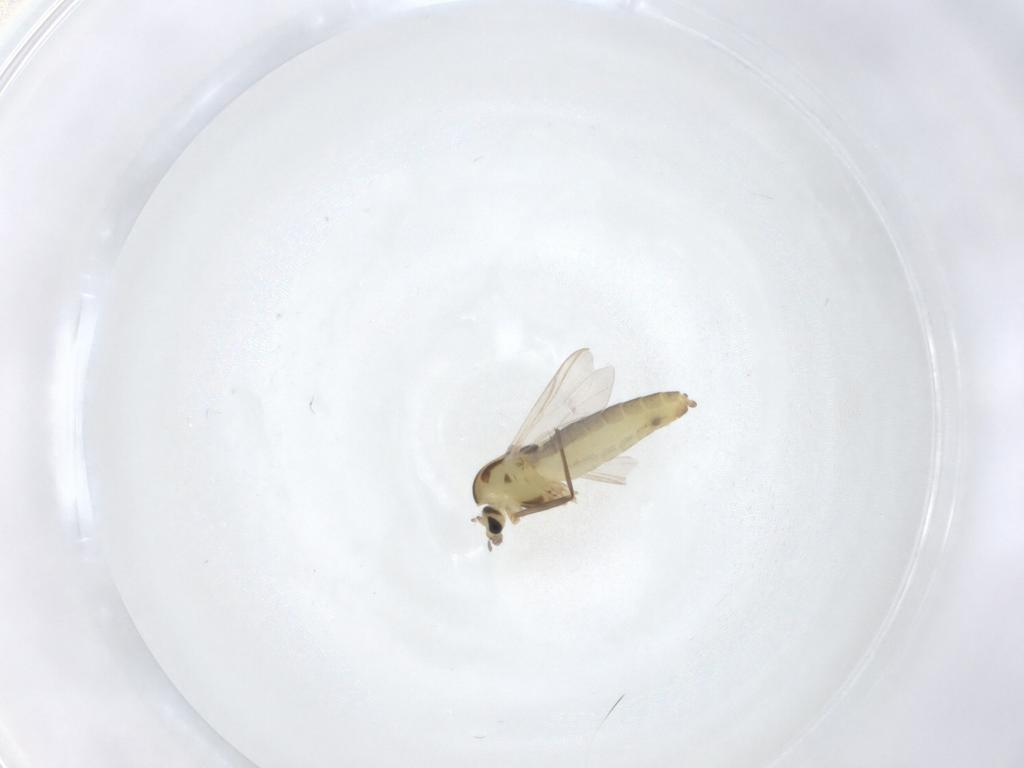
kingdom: Animalia
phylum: Arthropoda
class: Insecta
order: Diptera
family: Chironomidae
